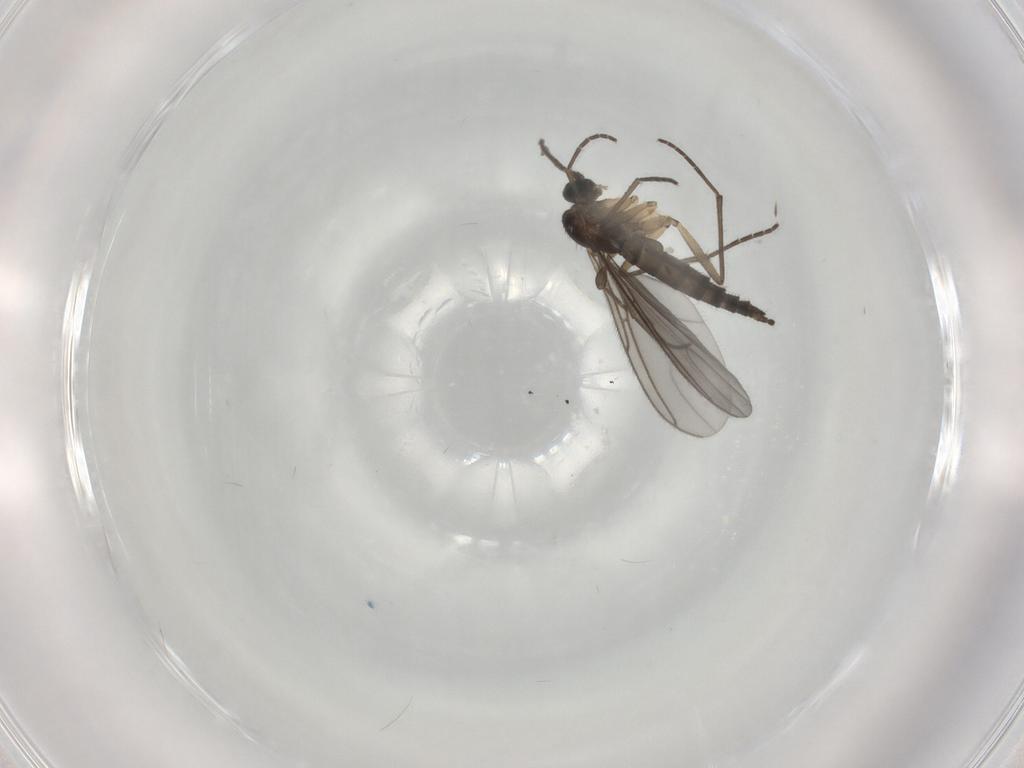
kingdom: Animalia
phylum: Arthropoda
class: Insecta
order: Diptera
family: Sciaridae
